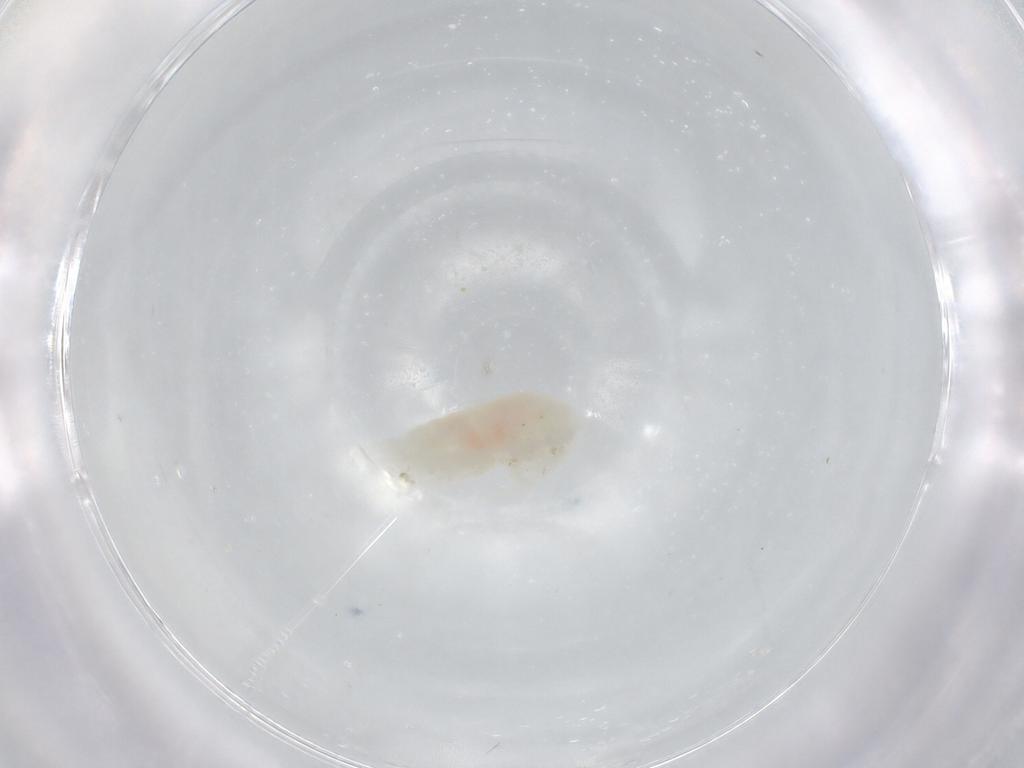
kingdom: Animalia
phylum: Arthropoda
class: Copepoda
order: Calanoida
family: Diaptomidae
